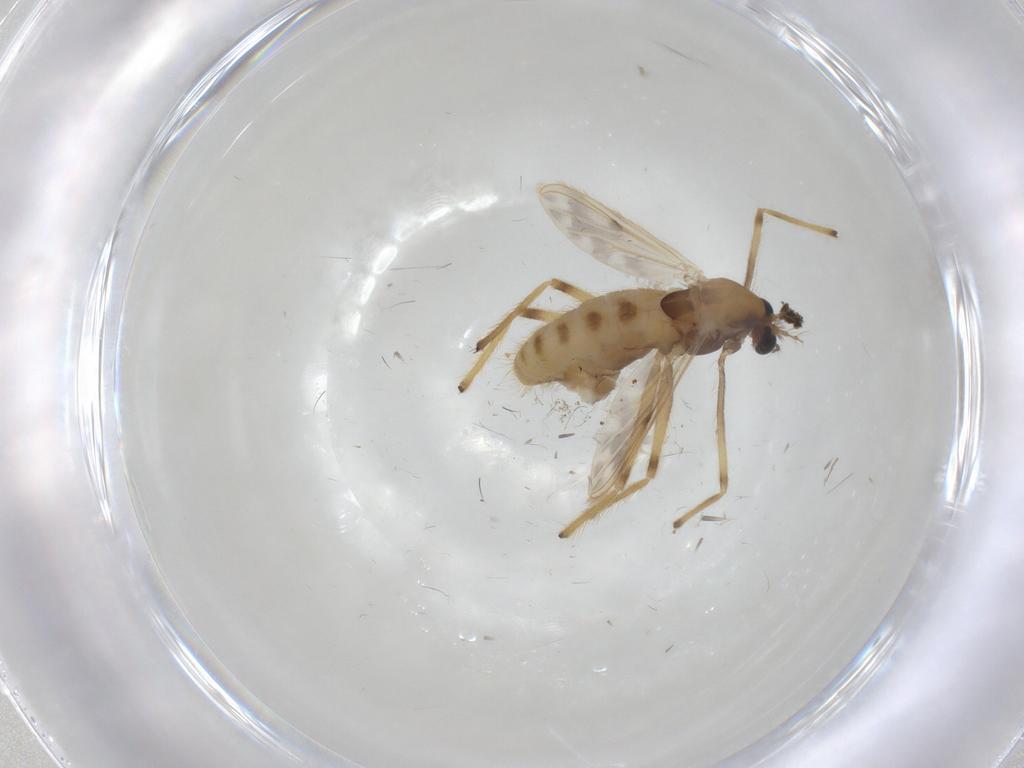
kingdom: Animalia
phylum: Arthropoda
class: Insecta
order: Diptera
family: Chironomidae
